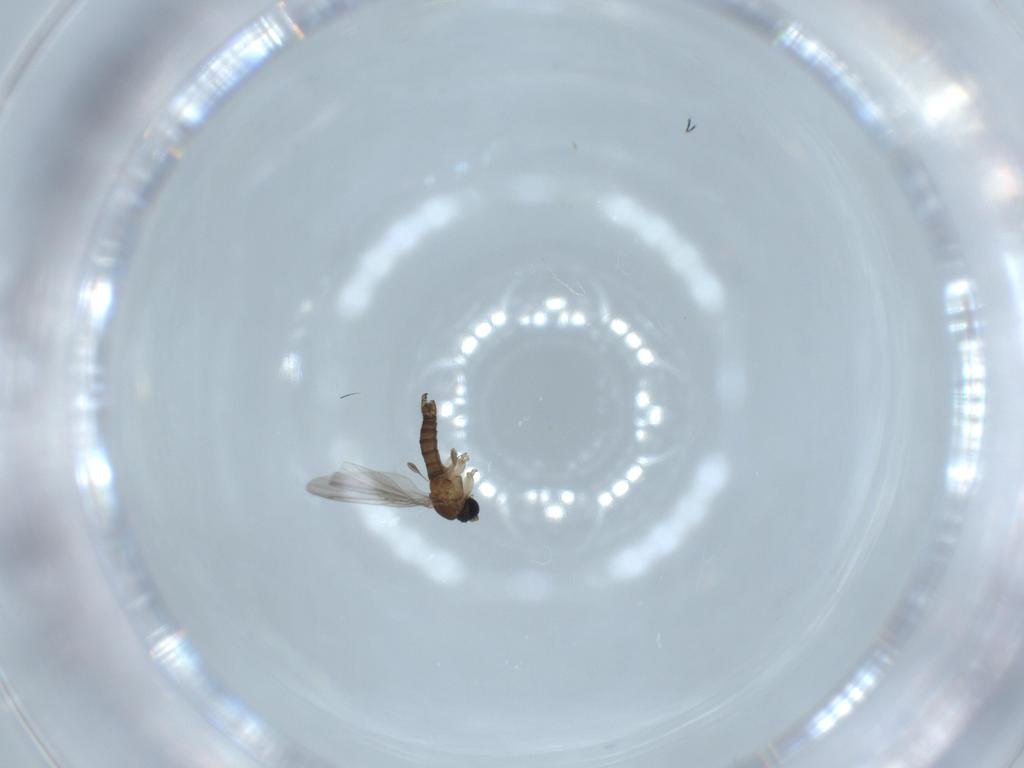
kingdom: Animalia
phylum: Arthropoda
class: Insecta
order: Diptera
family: Sciaridae
